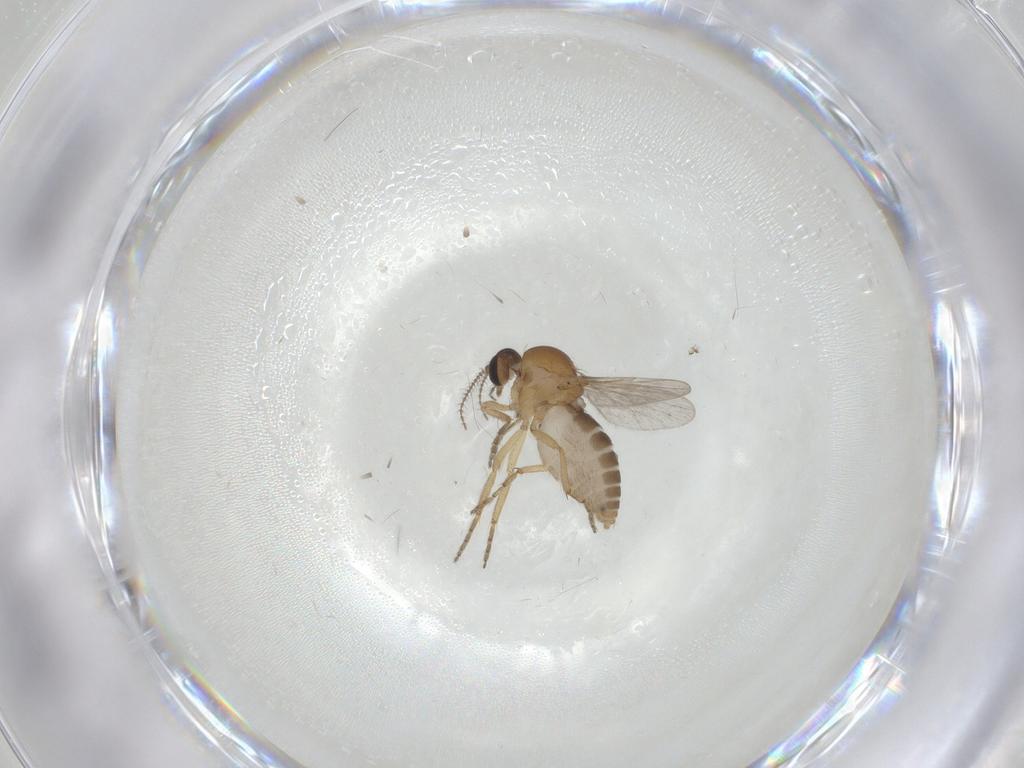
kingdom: Animalia
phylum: Arthropoda
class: Insecta
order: Diptera
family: Ceratopogonidae
